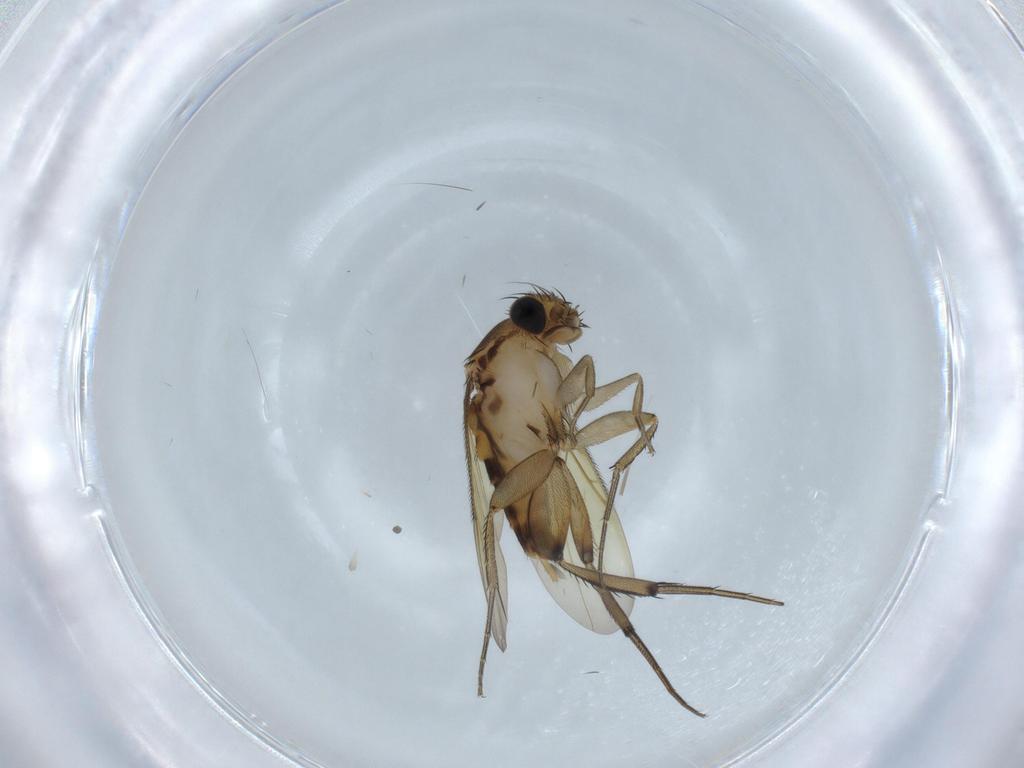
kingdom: Animalia
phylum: Arthropoda
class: Insecta
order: Diptera
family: Phoridae
